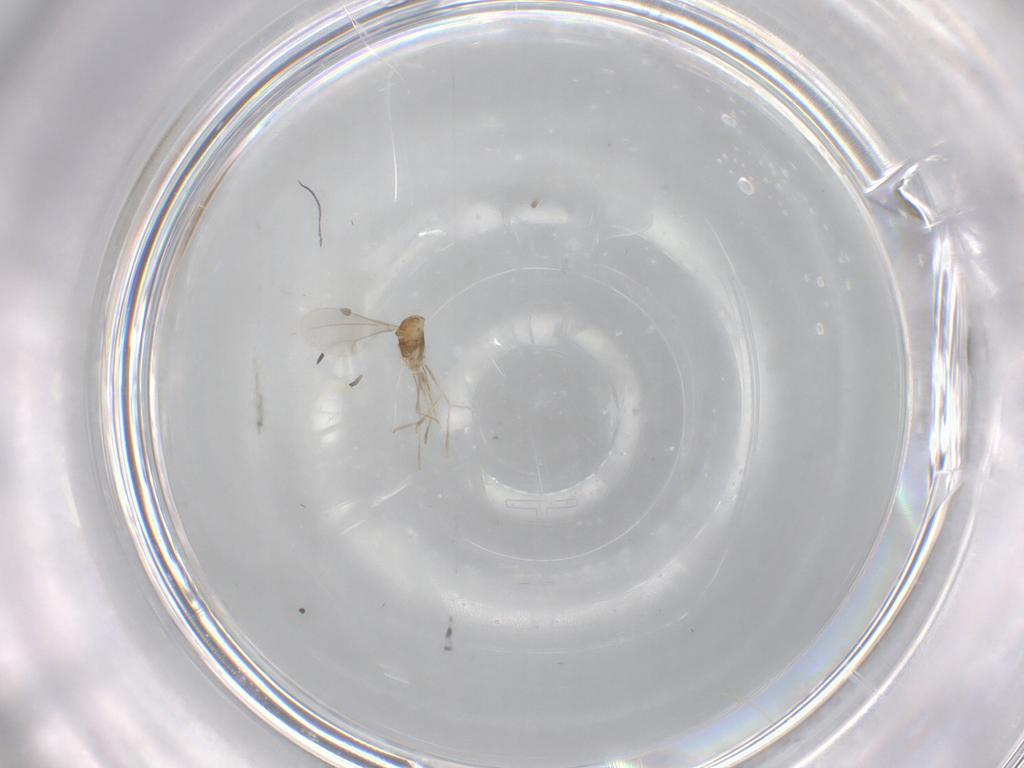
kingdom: Animalia
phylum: Arthropoda
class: Insecta
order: Diptera
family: Cecidomyiidae
